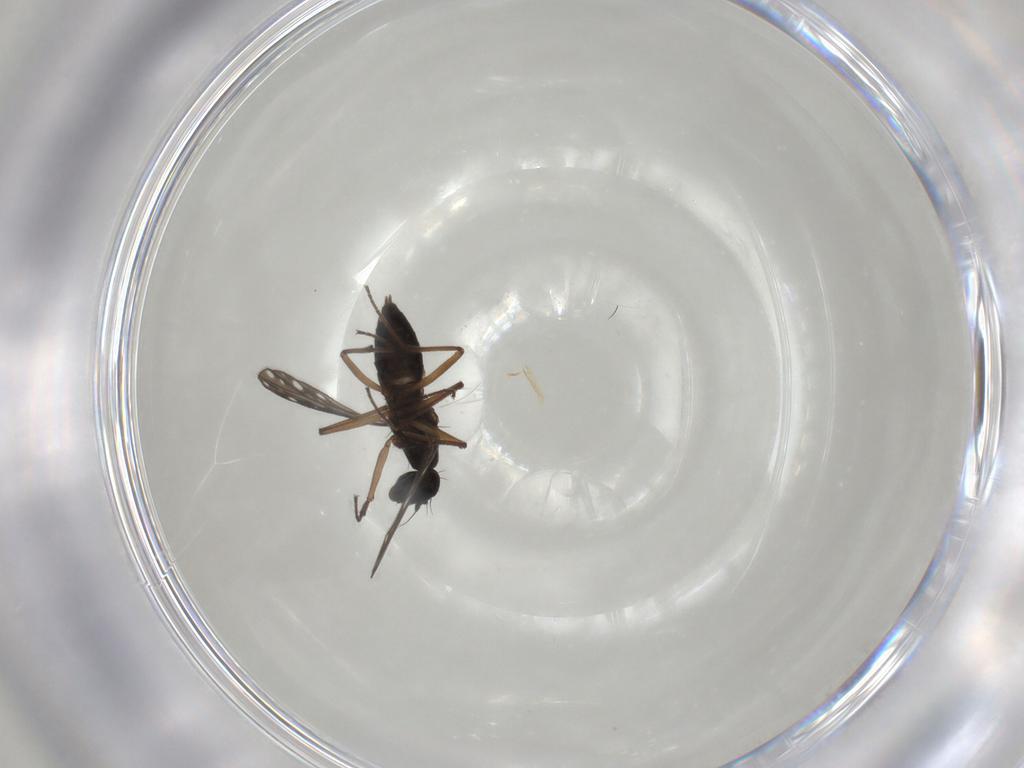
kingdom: Animalia
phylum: Arthropoda
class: Insecta
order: Diptera
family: Empididae
